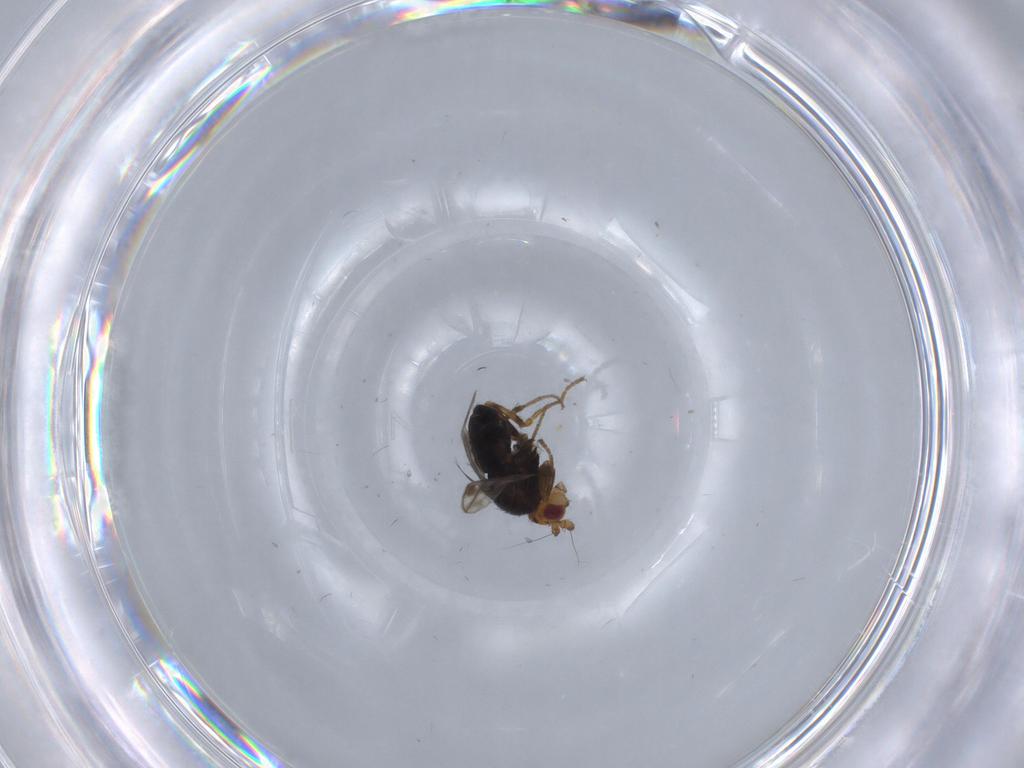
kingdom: Animalia
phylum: Arthropoda
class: Insecta
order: Diptera
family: Sphaeroceridae
